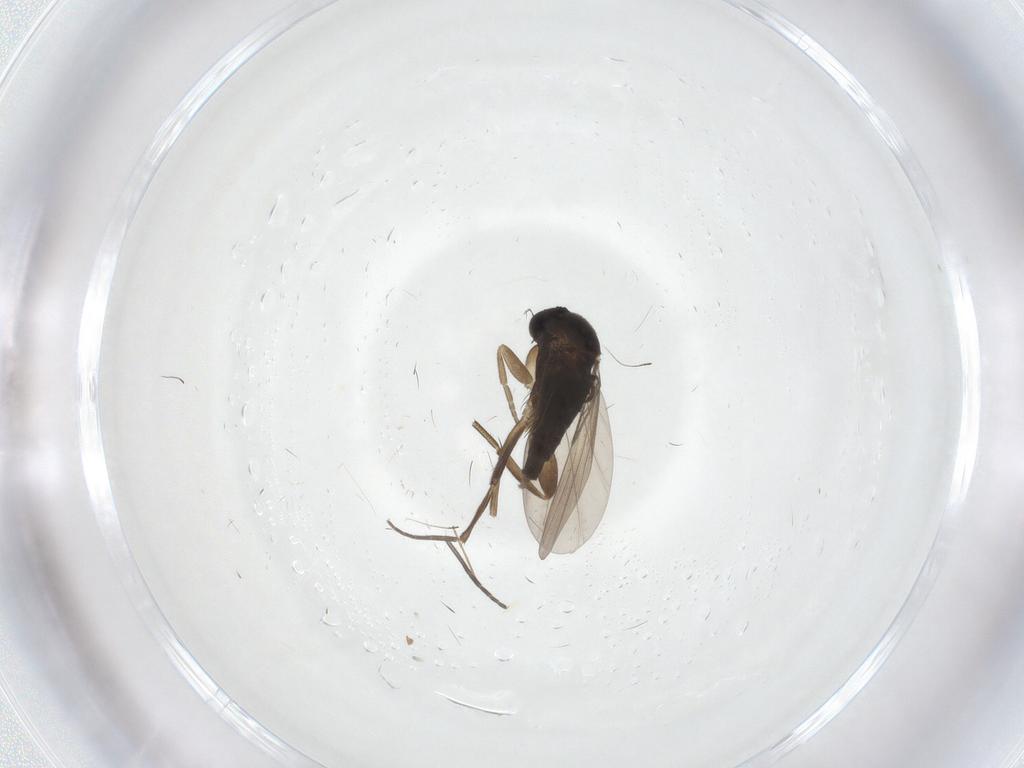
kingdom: Animalia
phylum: Arthropoda
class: Insecta
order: Diptera
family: Phoridae
